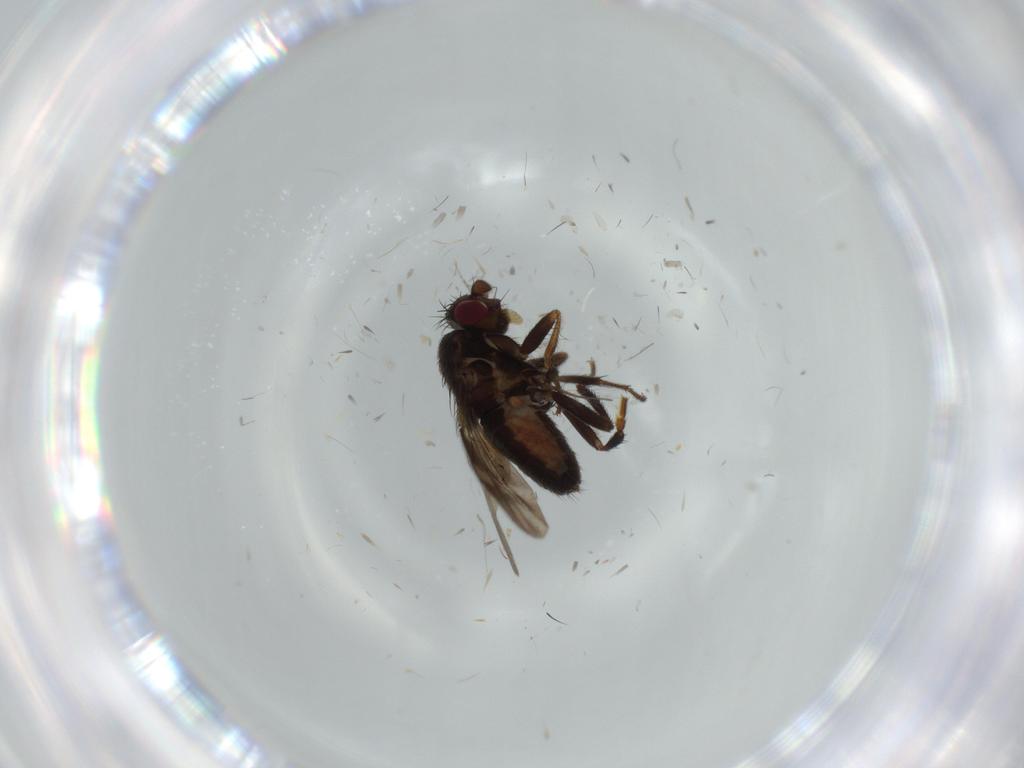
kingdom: Animalia
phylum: Arthropoda
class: Insecta
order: Diptera
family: Sphaeroceridae
